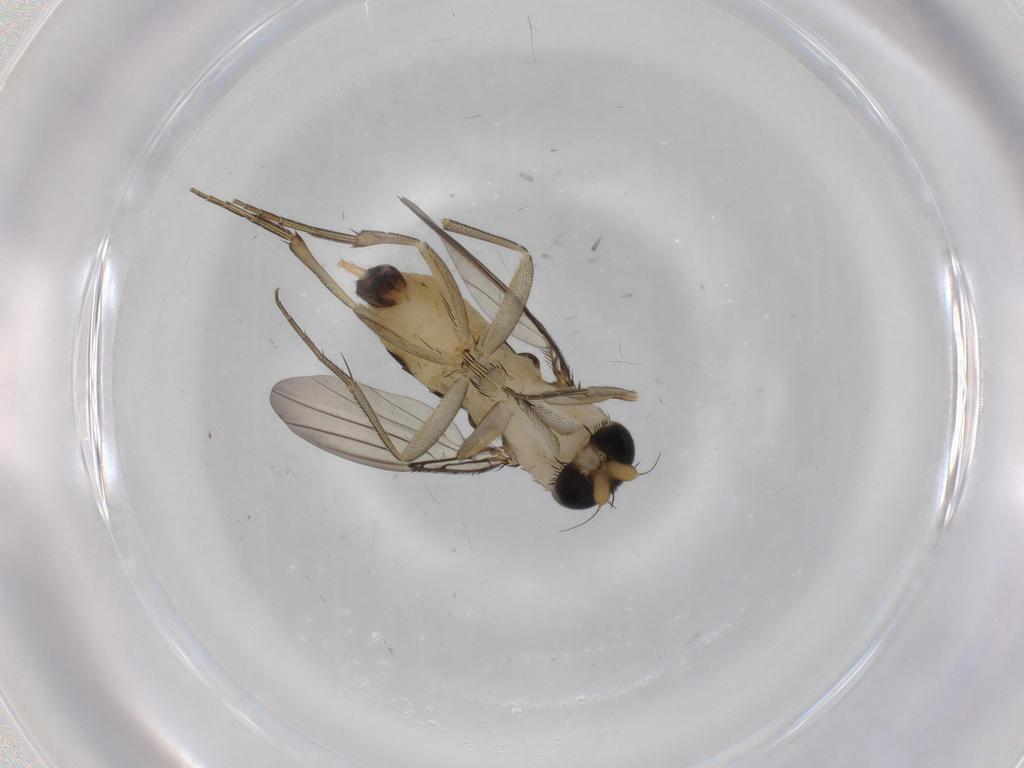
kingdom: Animalia
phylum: Arthropoda
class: Insecta
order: Diptera
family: Phoridae
